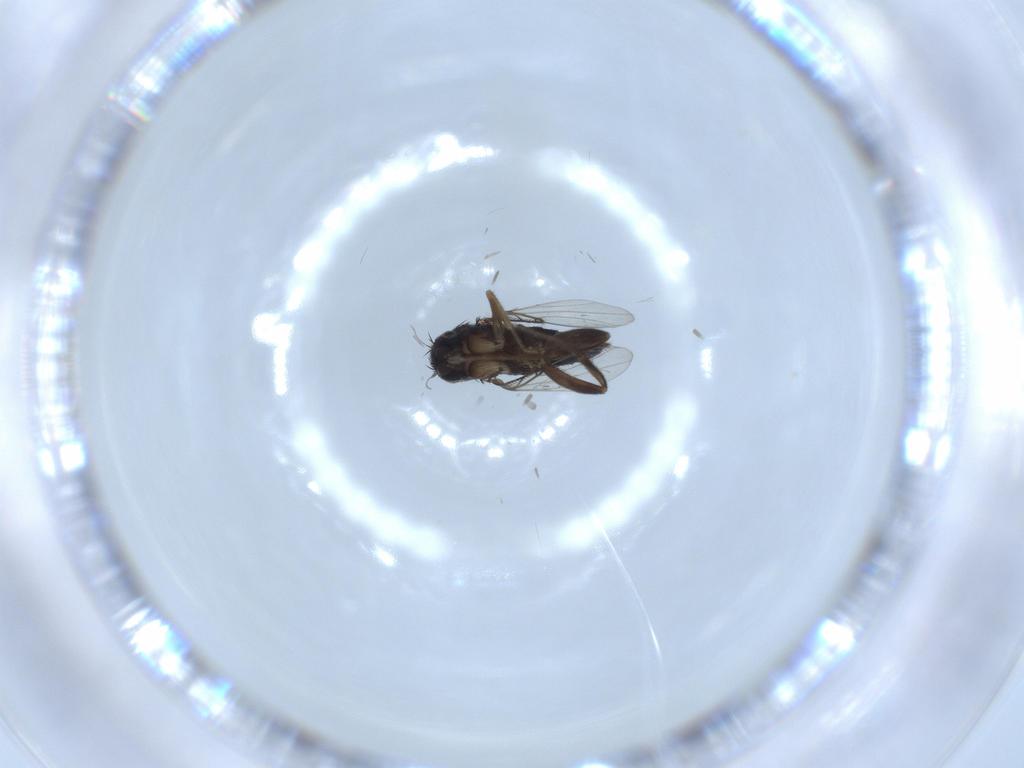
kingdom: Animalia
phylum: Arthropoda
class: Insecta
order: Diptera
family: Phoridae
